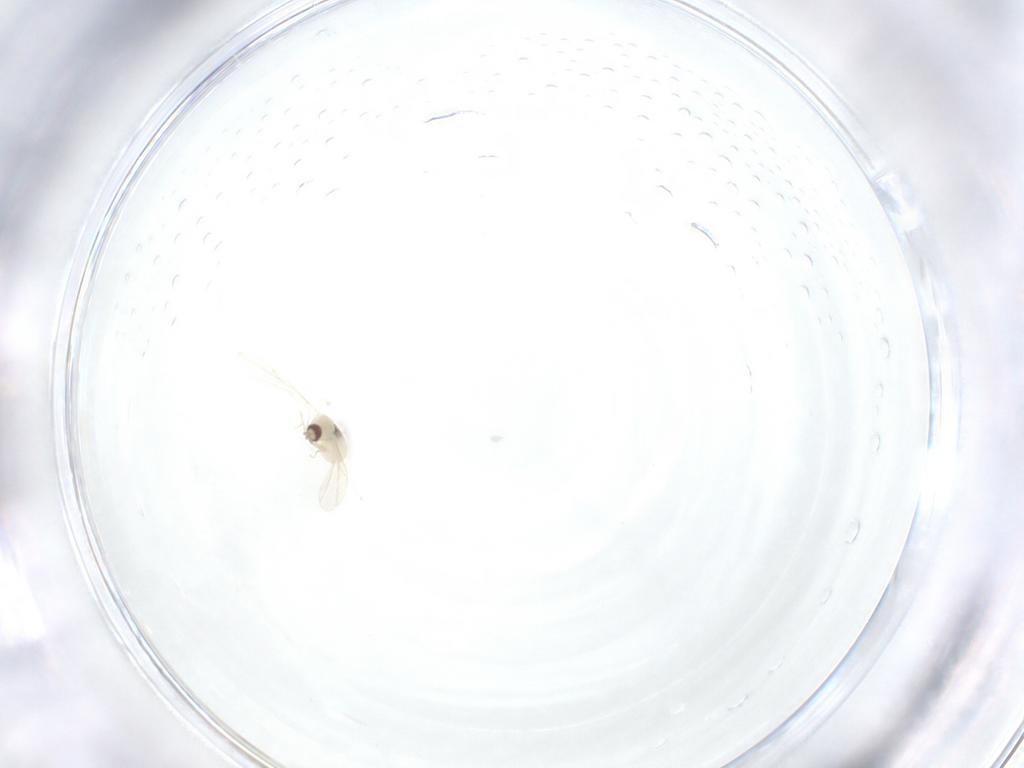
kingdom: Animalia
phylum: Arthropoda
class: Insecta
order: Diptera
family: Cecidomyiidae
